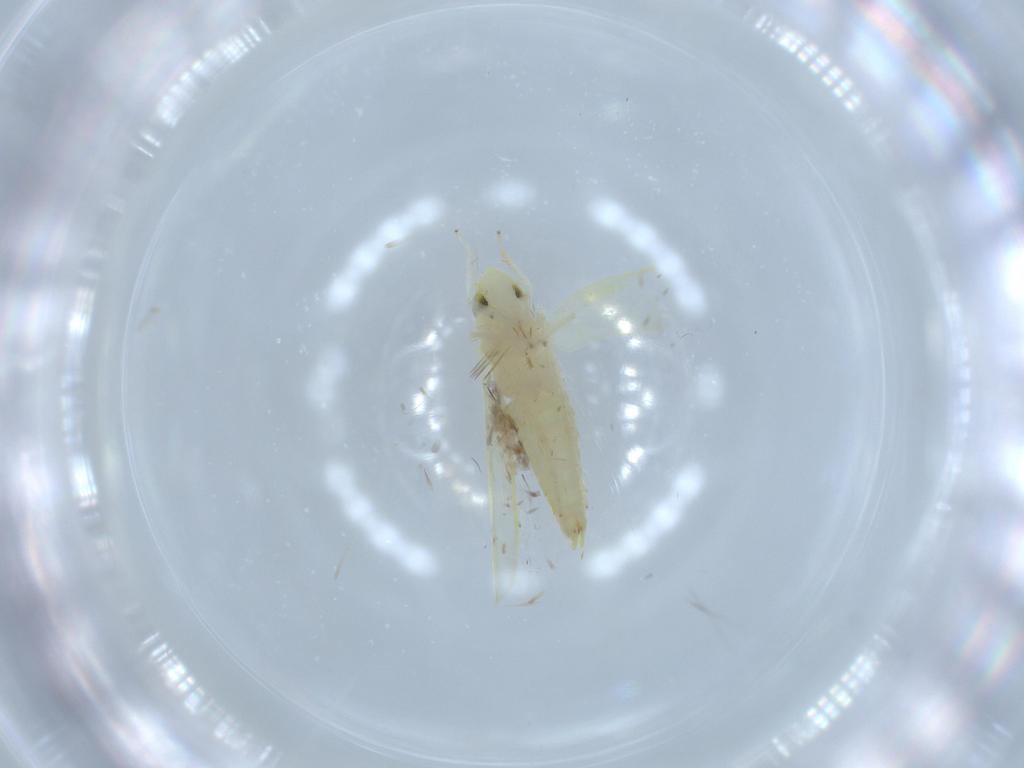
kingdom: Animalia
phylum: Arthropoda
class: Insecta
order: Hemiptera
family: Cicadellidae
